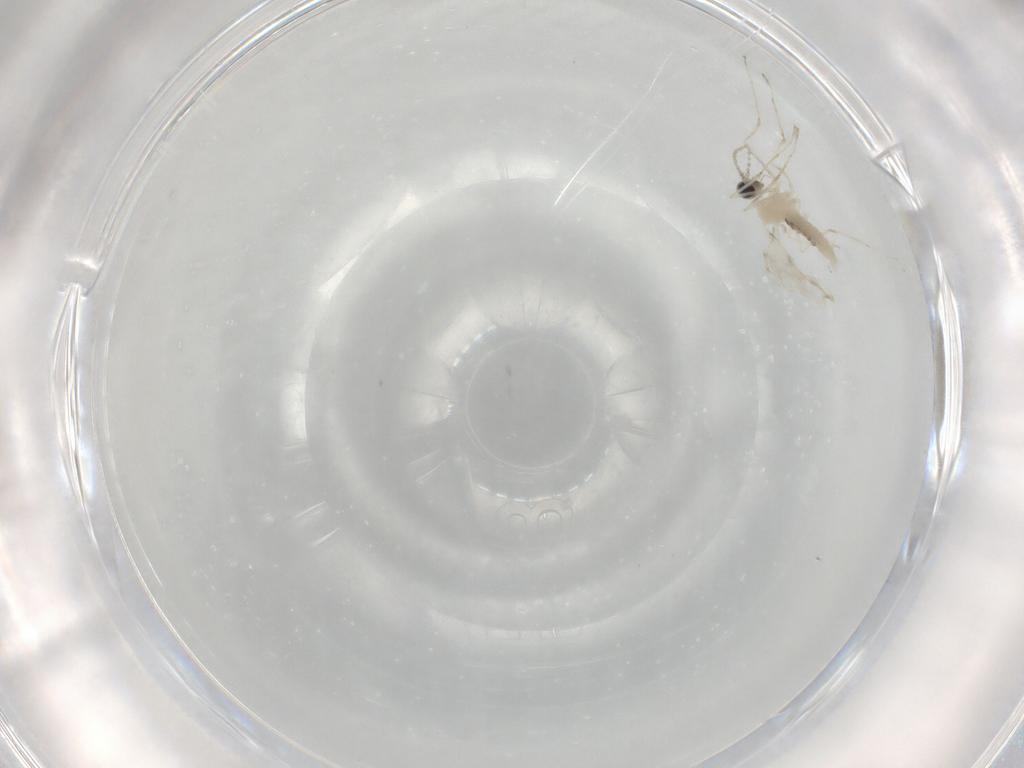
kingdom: Animalia
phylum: Arthropoda
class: Insecta
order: Diptera
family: Cecidomyiidae
